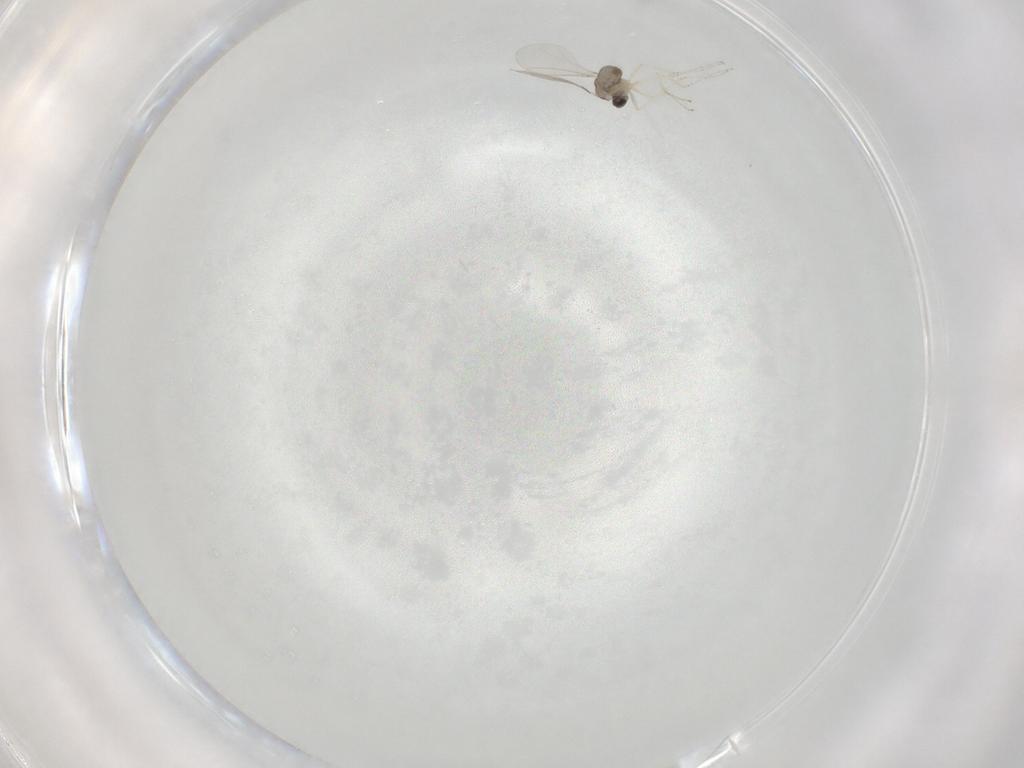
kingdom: Animalia
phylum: Arthropoda
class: Insecta
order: Diptera
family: Cecidomyiidae
